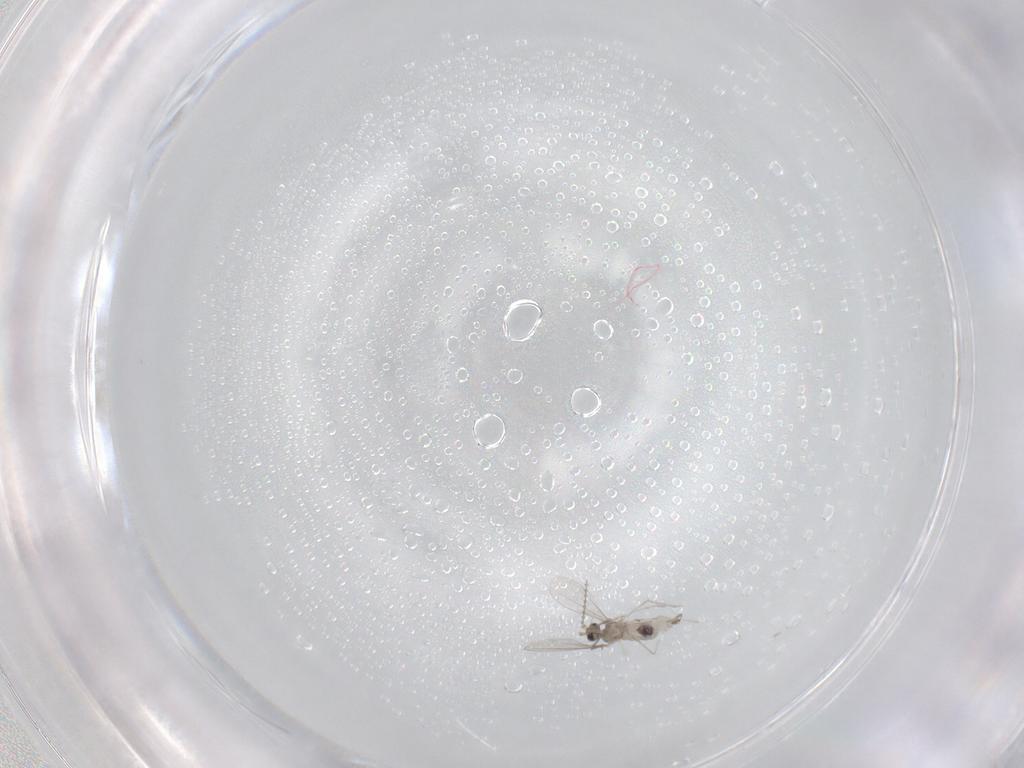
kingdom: Animalia
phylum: Arthropoda
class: Insecta
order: Diptera
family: Cecidomyiidae
